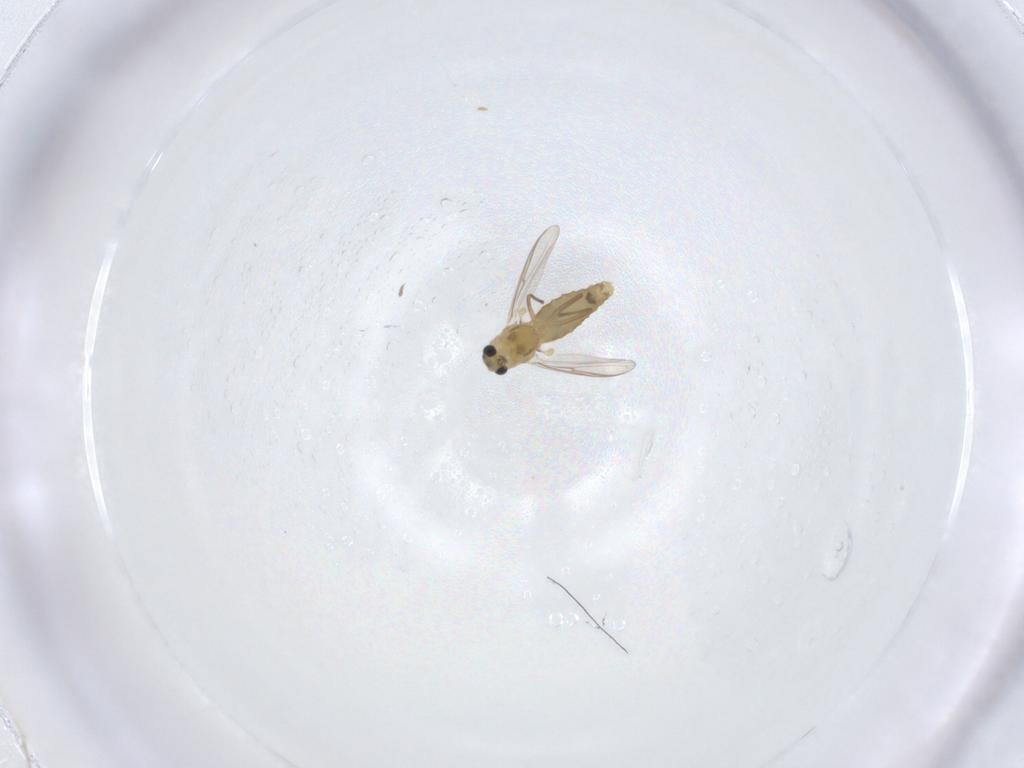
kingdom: Animalia
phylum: Arthropoda
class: Insecta
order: Diptera
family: Chironomidae
